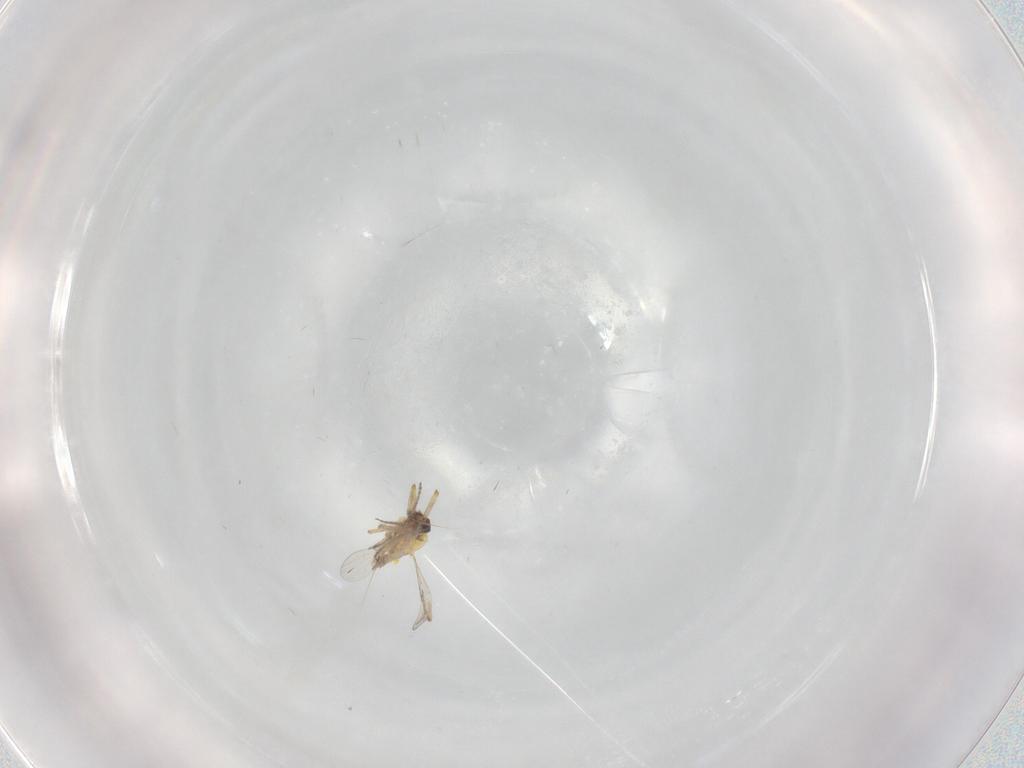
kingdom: Animalia
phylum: Arthropoda
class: Insecta
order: Diptera
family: Ceratopogonidae
